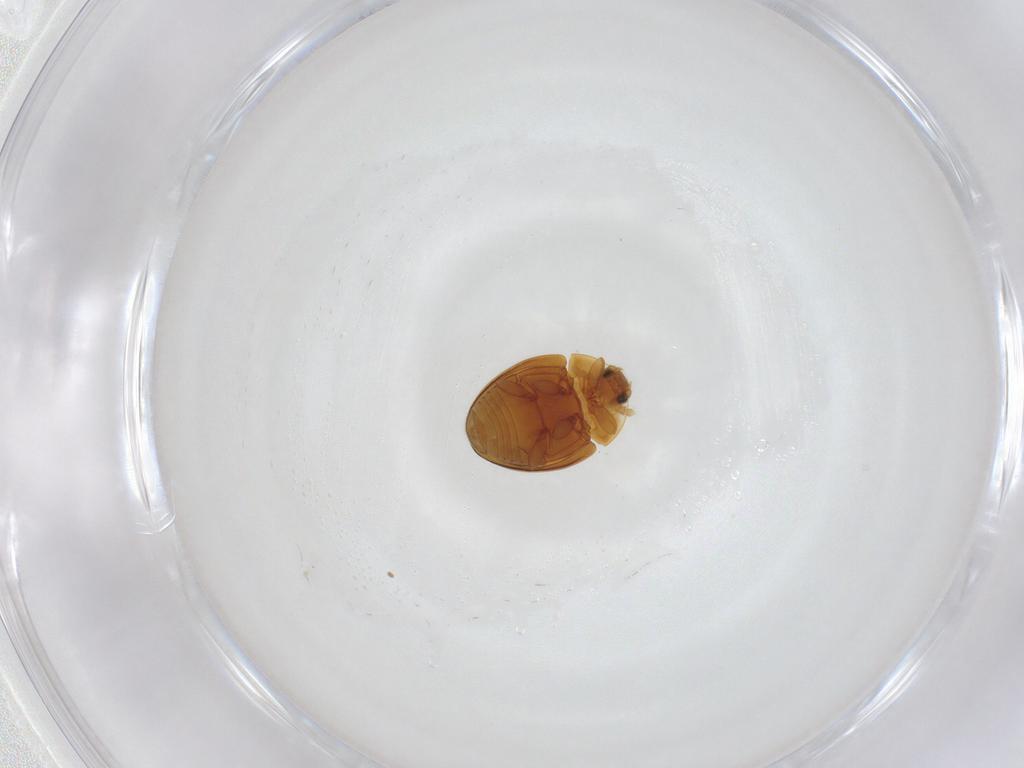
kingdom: Animalia
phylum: Arthropoda
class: Insecta
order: Coleoptera
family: Corylophidae
